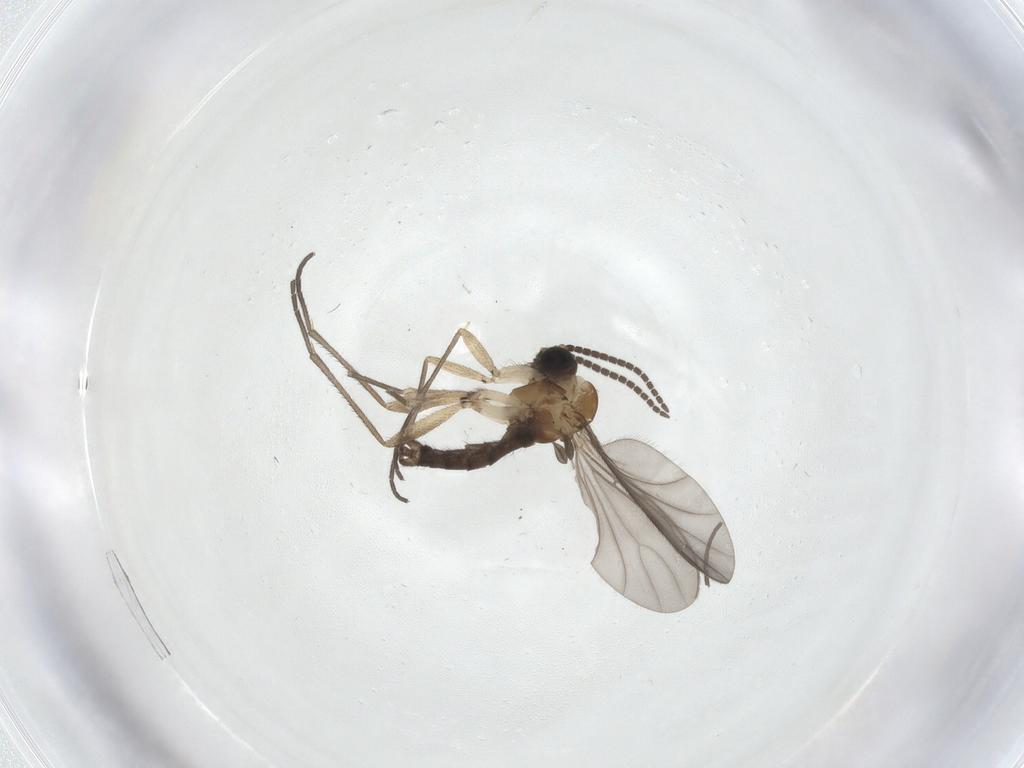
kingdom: Animalia
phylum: Arthropoda
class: Insecta
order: Diptera
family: Sciaridae
